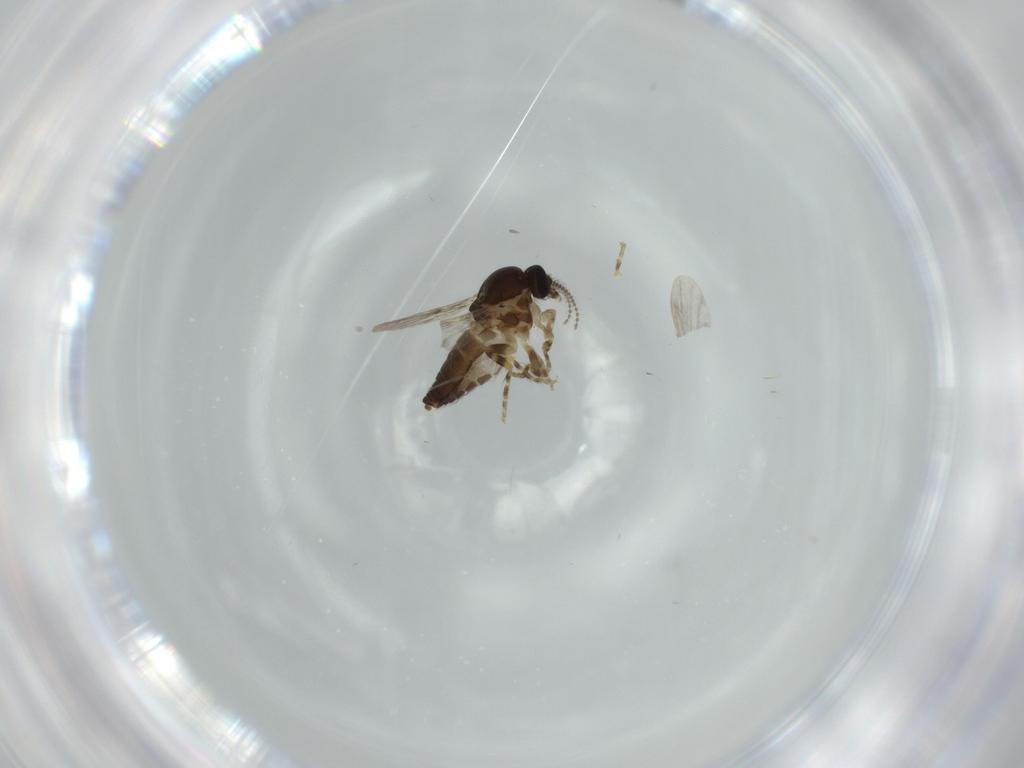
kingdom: Animalia
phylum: Arthropoda
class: Insecta
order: Diptera
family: Ceratopogonidae
